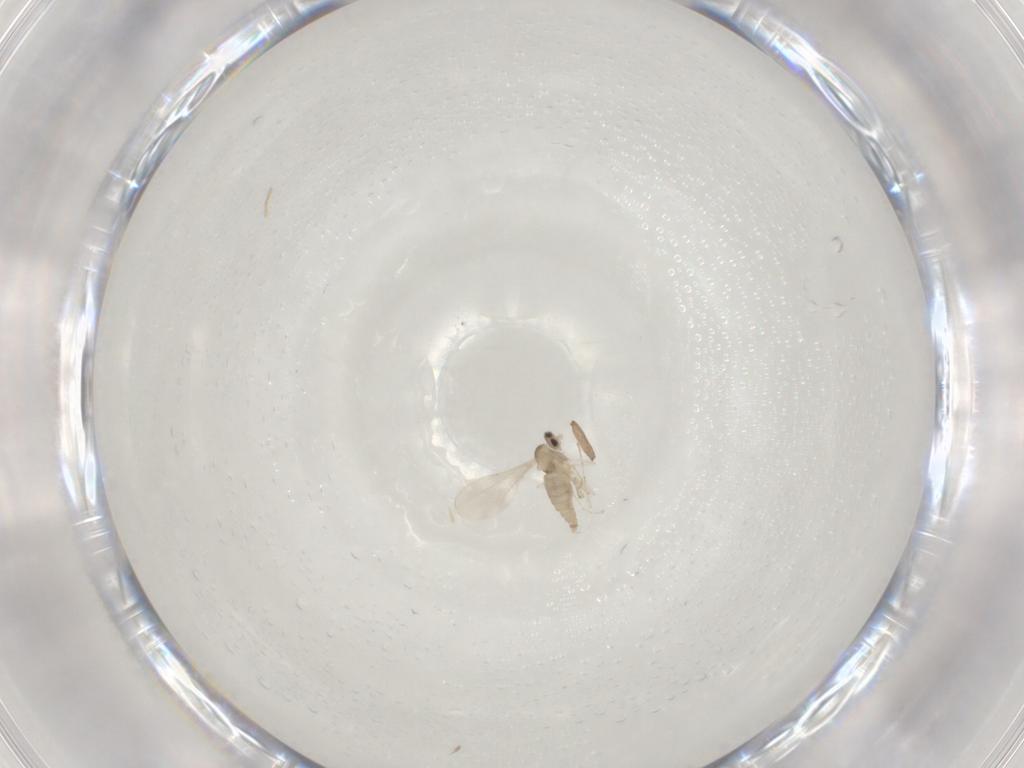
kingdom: Animalia
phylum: Arthropoda
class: Insecta
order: Diptera
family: Cecidomyiidae
